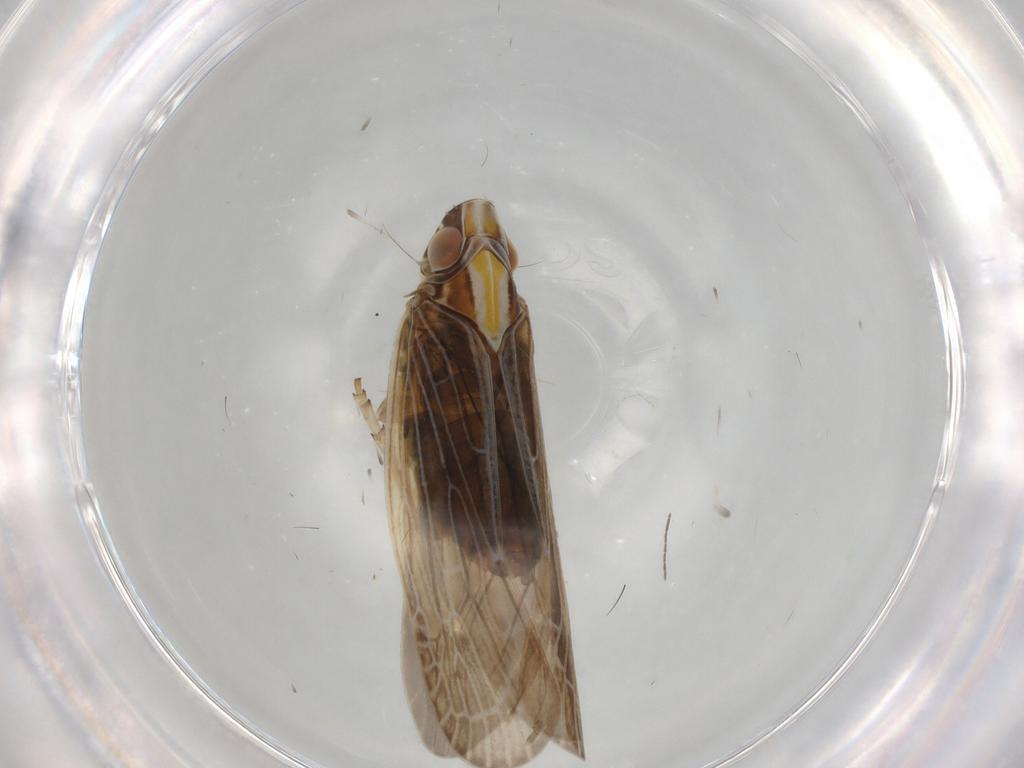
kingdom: Animalia
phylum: Arthropoda
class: Insecta
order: Hemiptera
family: Achilidae
